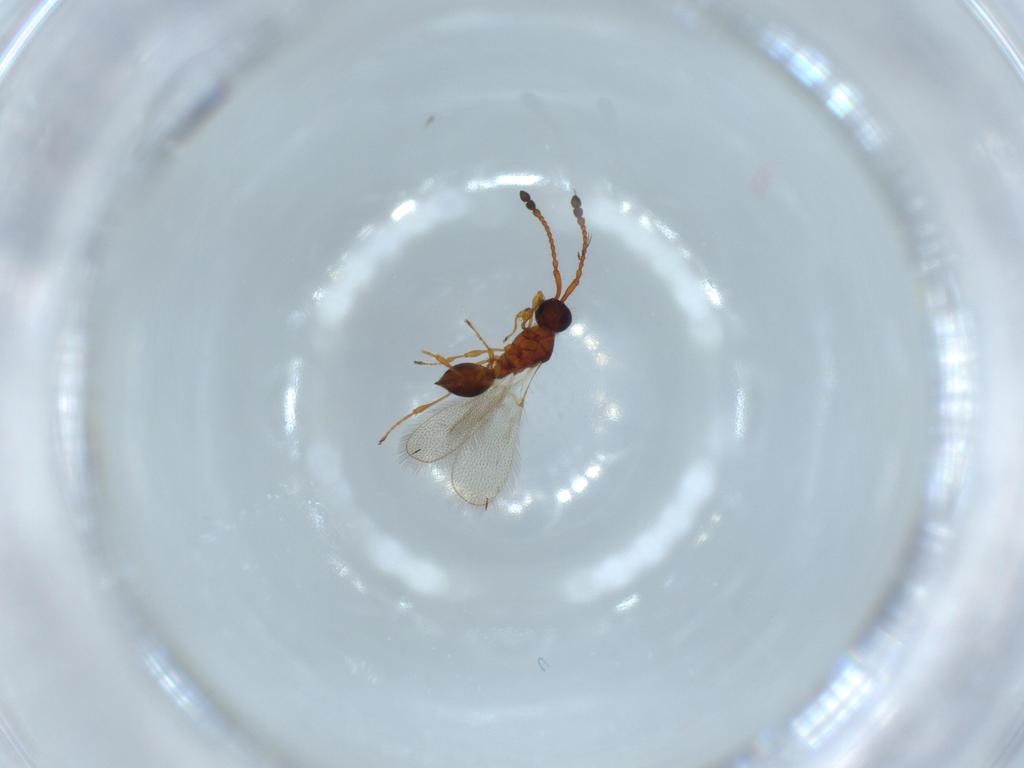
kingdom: Animalia
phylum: Arthropoda
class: Insecta
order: Hymenoptera
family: Diapriidae
